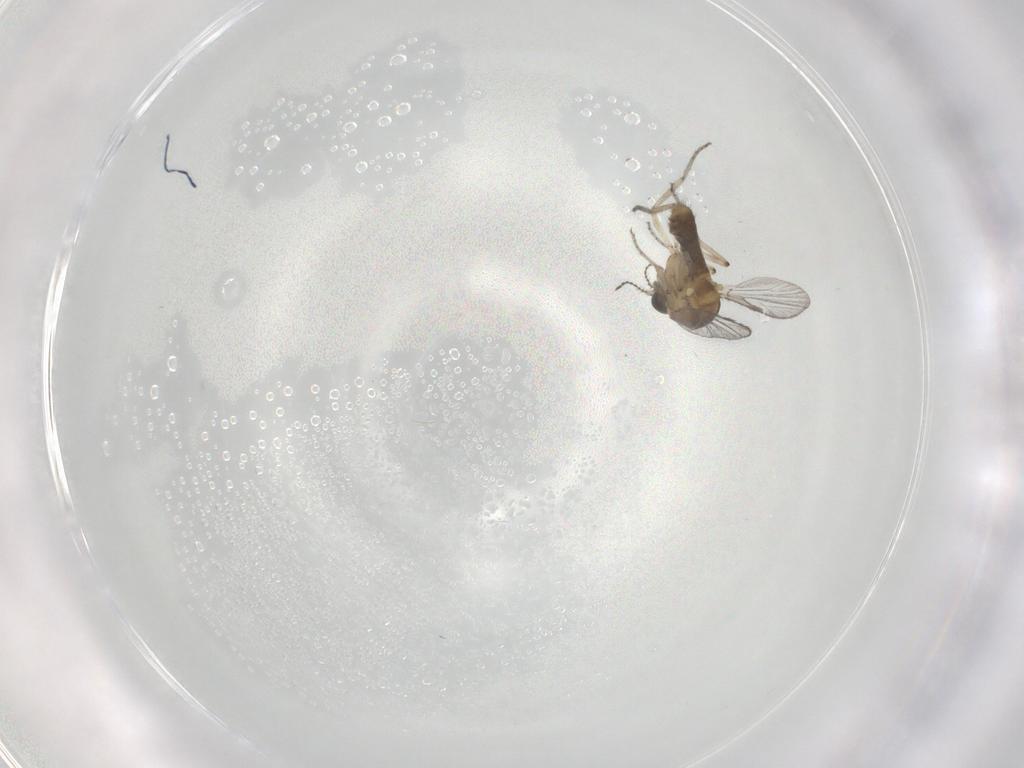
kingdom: Animalia
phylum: Arthropoda
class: Insecta
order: Diptera
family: Ceratopogonidae
